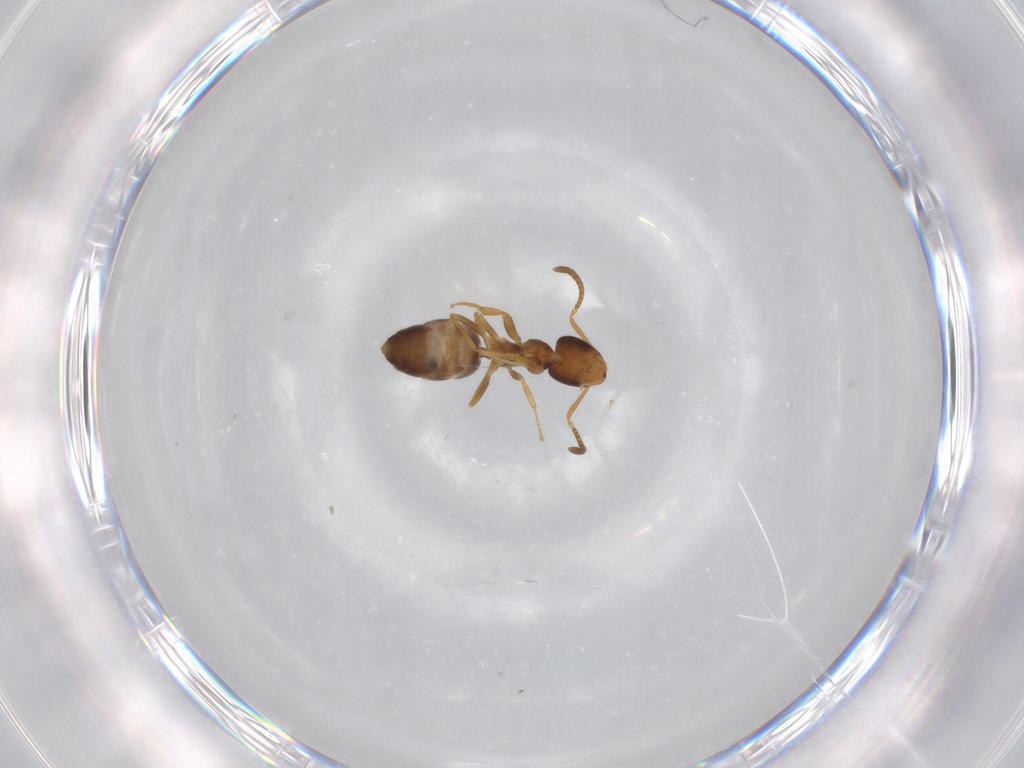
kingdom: Animalia
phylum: Arthropoda
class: Insecta
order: Hymenoptera
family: Formicidae
